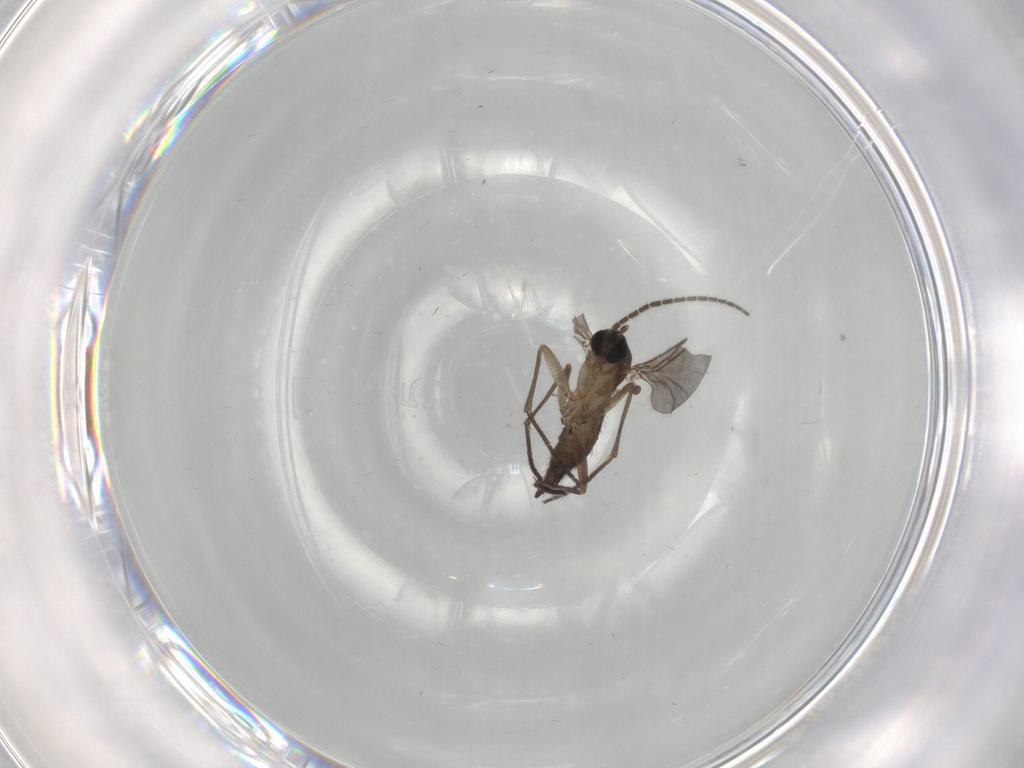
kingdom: Animalia
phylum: Arthropoda
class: Insecta
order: Diptera
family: Sciaridae
